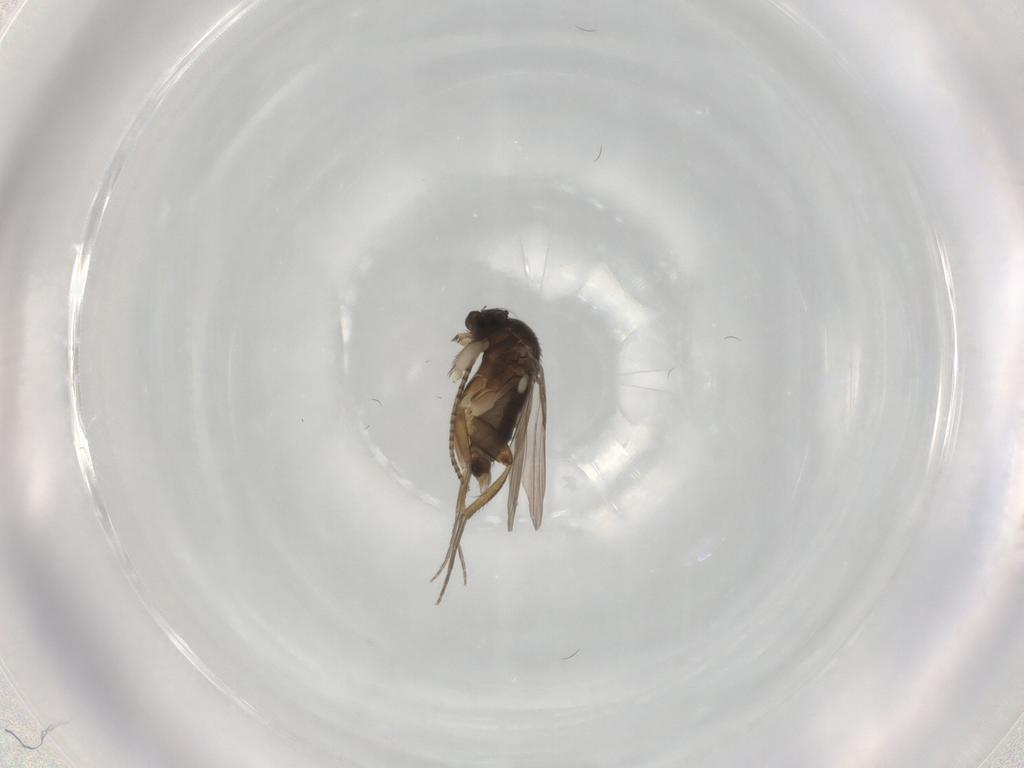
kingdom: Animalia
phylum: Arthropoda
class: Insecta
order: Diptera
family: Phoridae
